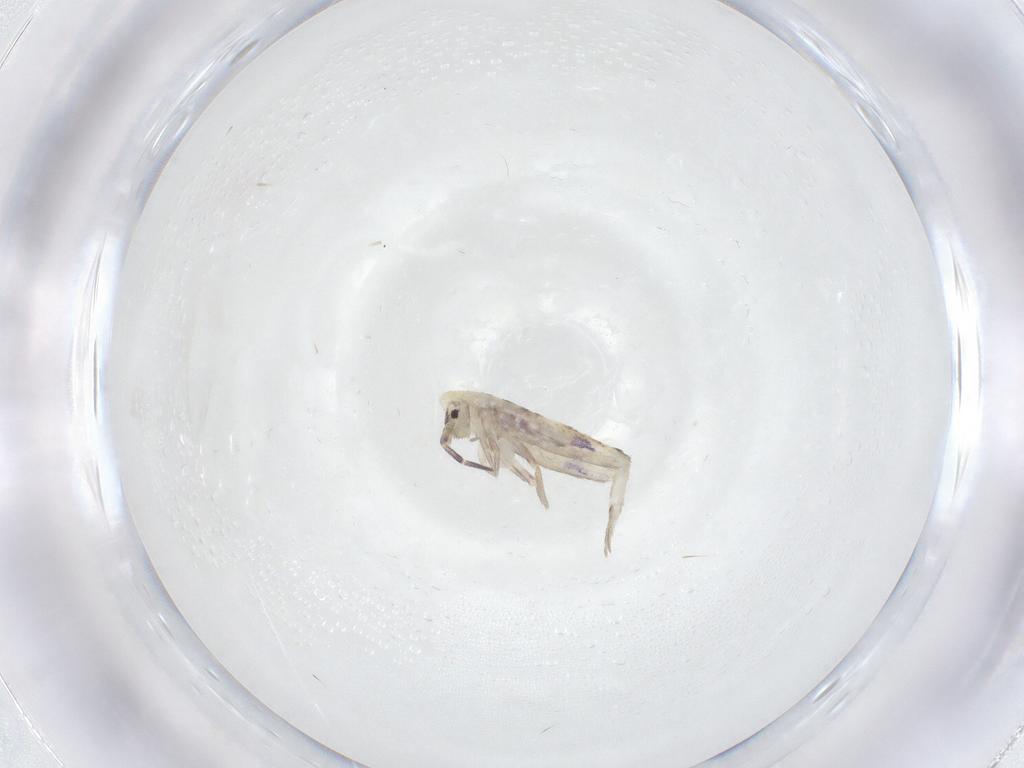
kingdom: Animalia
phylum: Arthropoda
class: Collembola
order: Entomobryomorpha
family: Entomobryidae
